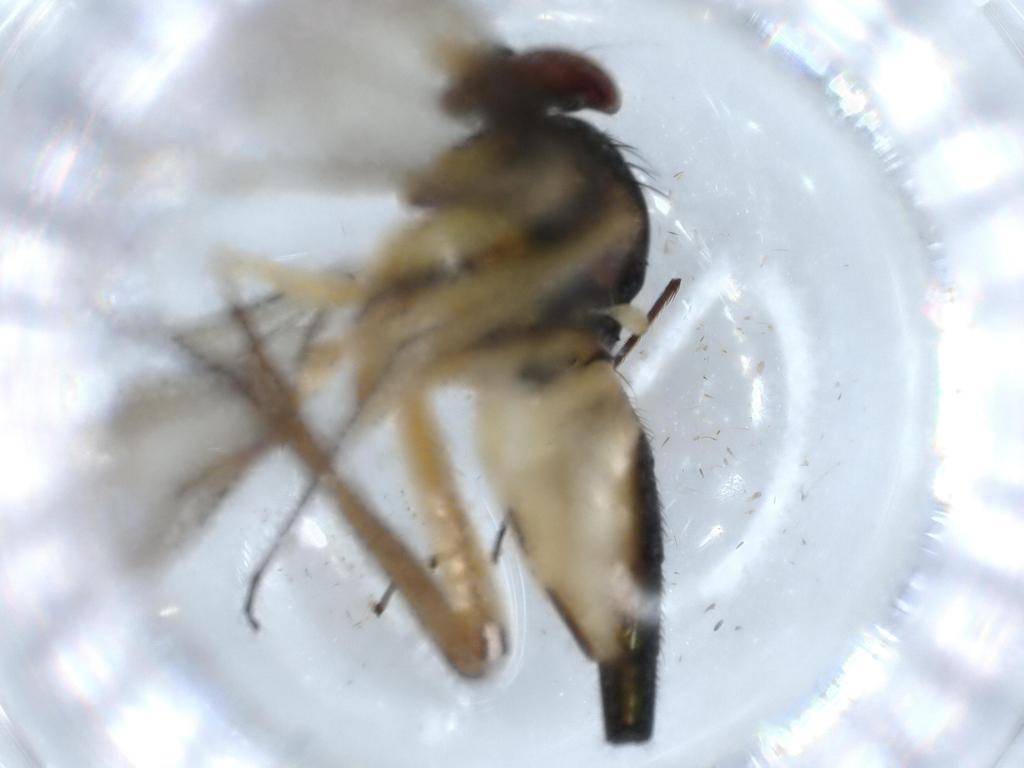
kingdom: Animalia
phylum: Arthropoda
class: Insecta
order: Diptera
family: Dolichopodidae
